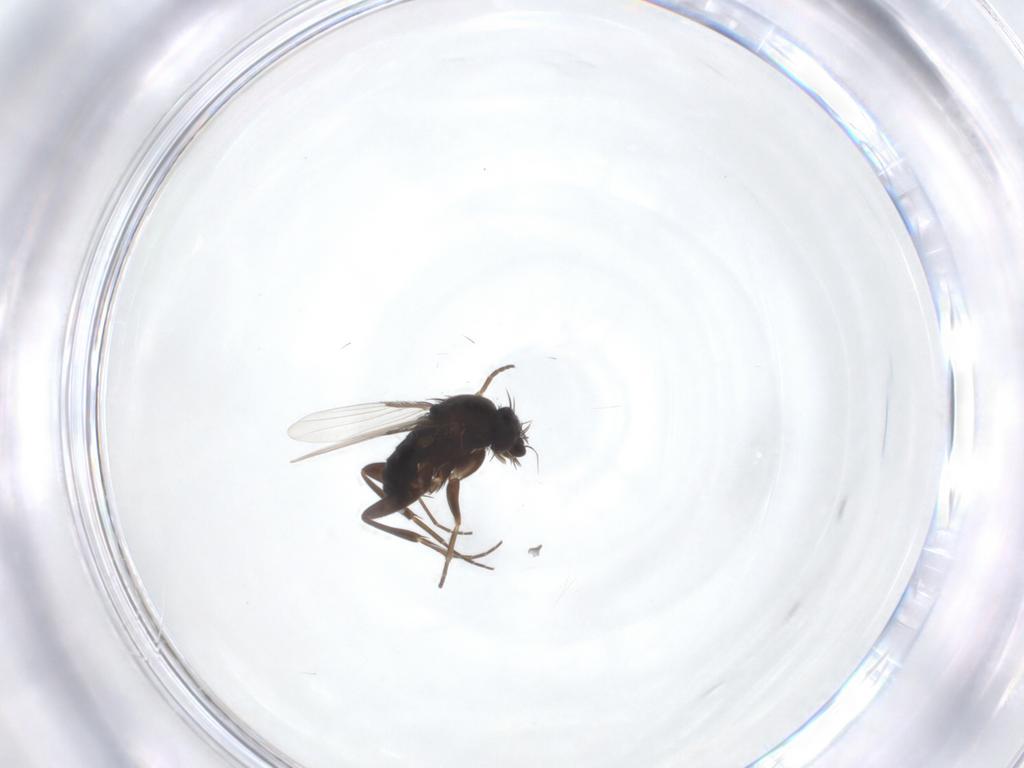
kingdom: Animalia
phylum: Arthropoda
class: Insecta
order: Diptera
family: Phoridae
